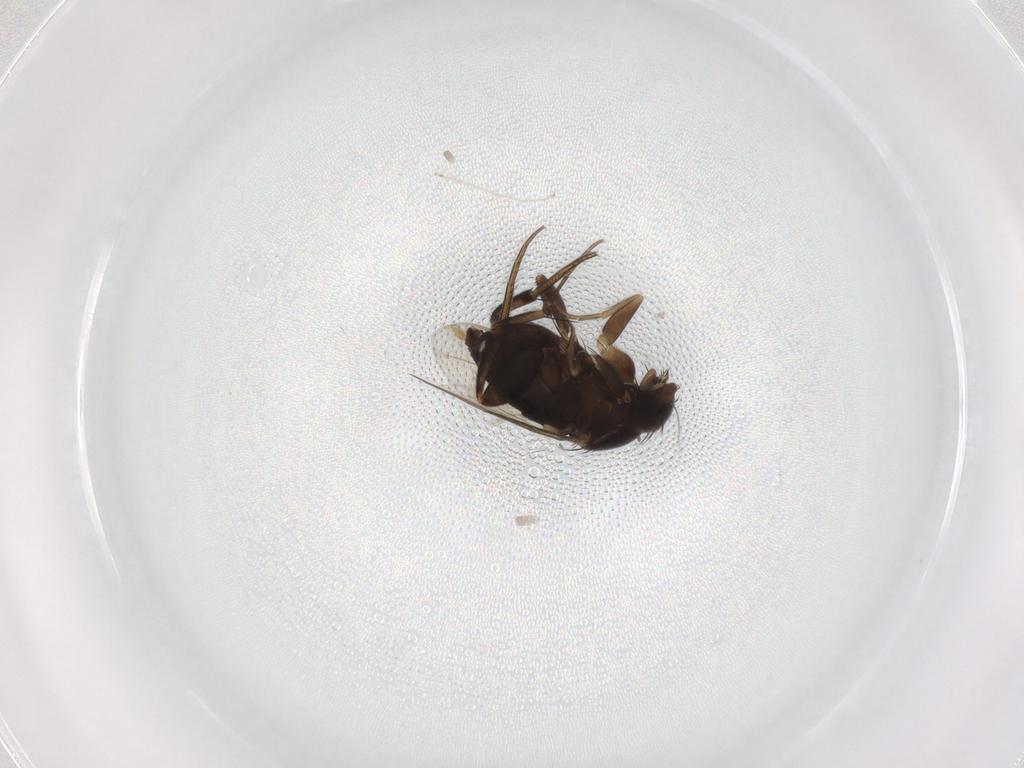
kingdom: Animalia
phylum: Arthropoda
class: Insecta
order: Diptera
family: Phoridae
